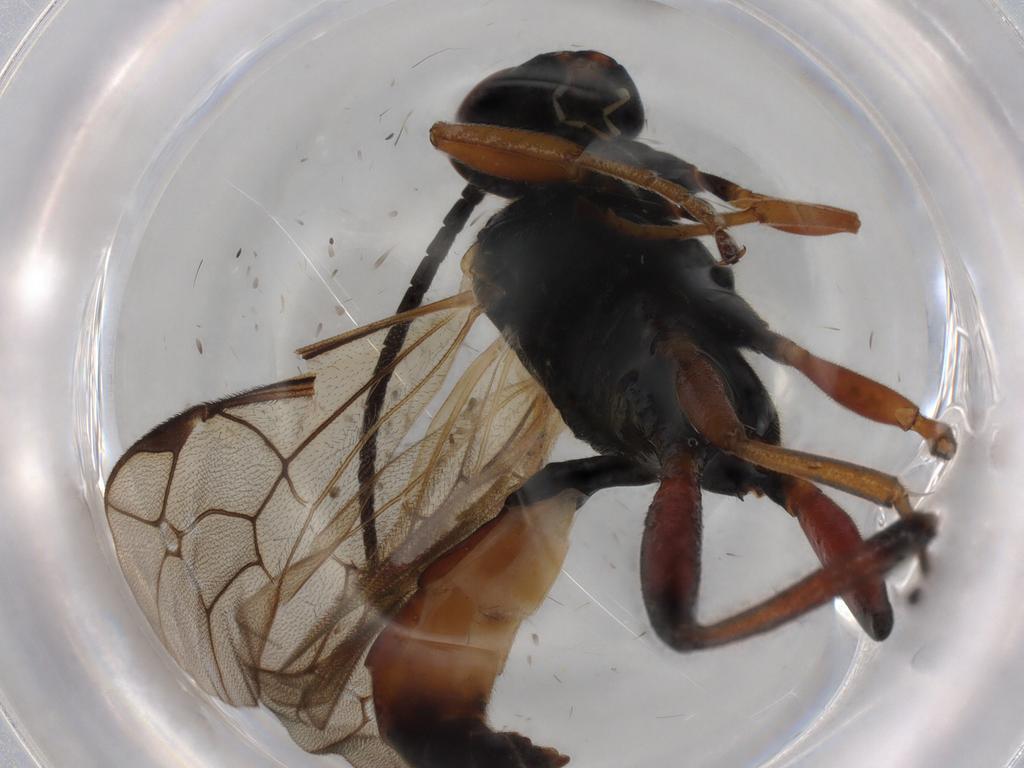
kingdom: Animalia
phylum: Arthropoda
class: Insecta
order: Hymenoptera
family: Ichneumonidae
